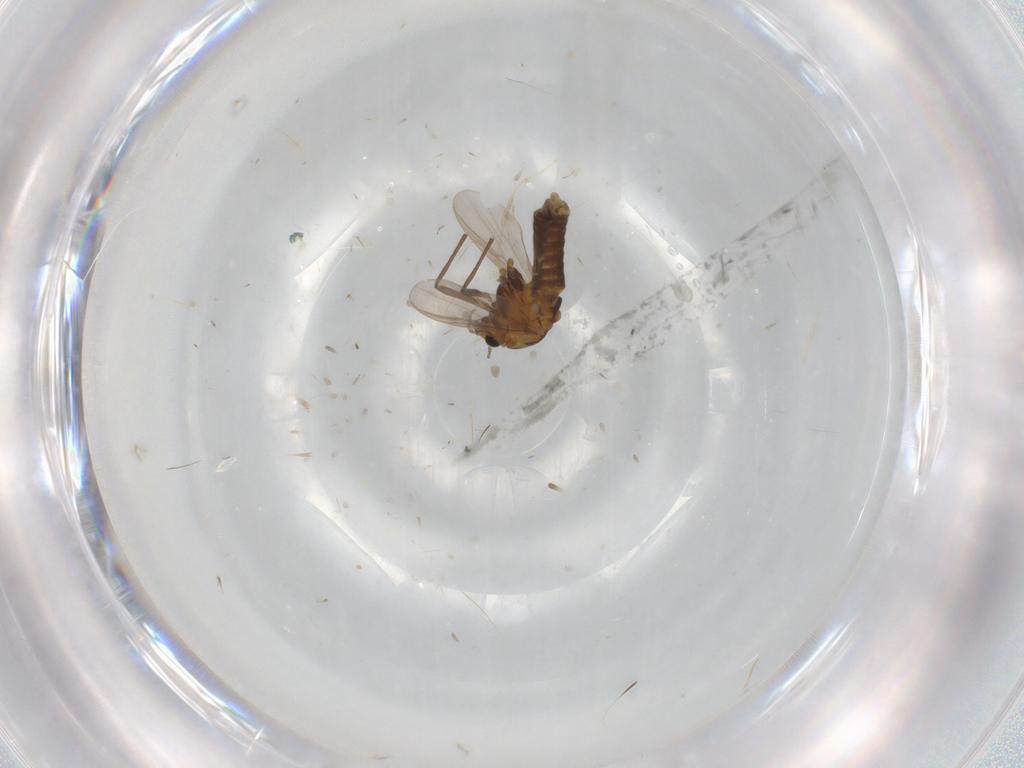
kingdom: Animalia
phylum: Arthropoda
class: Insecta
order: Diptera
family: Chironomidae
